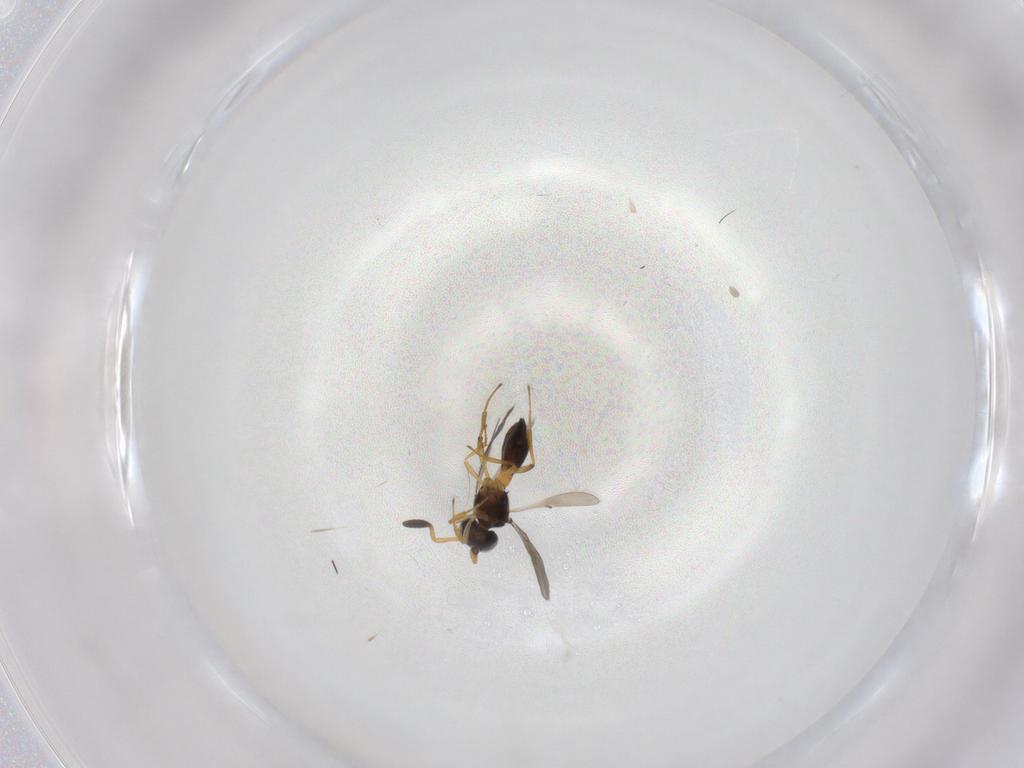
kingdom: Animalia
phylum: Arthropoda
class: Insecta
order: Hymenoptera
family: Scelionidae
